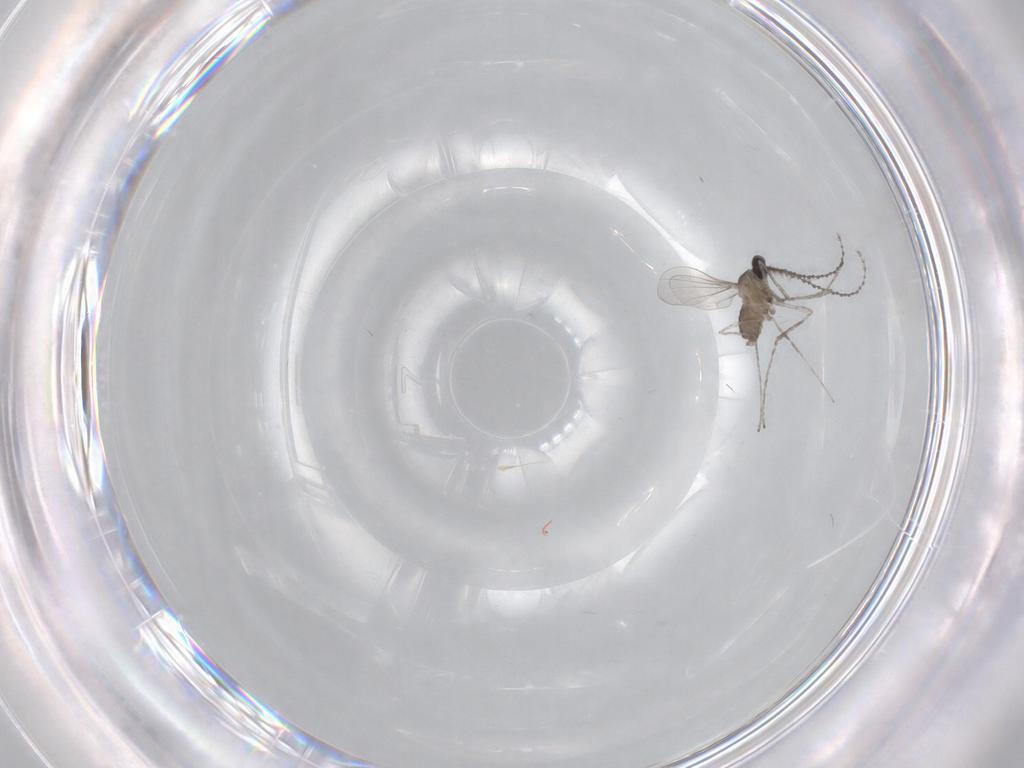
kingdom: Animalia
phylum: Arthropoda
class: Insecta
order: Diptera
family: Cecidomyiidae
